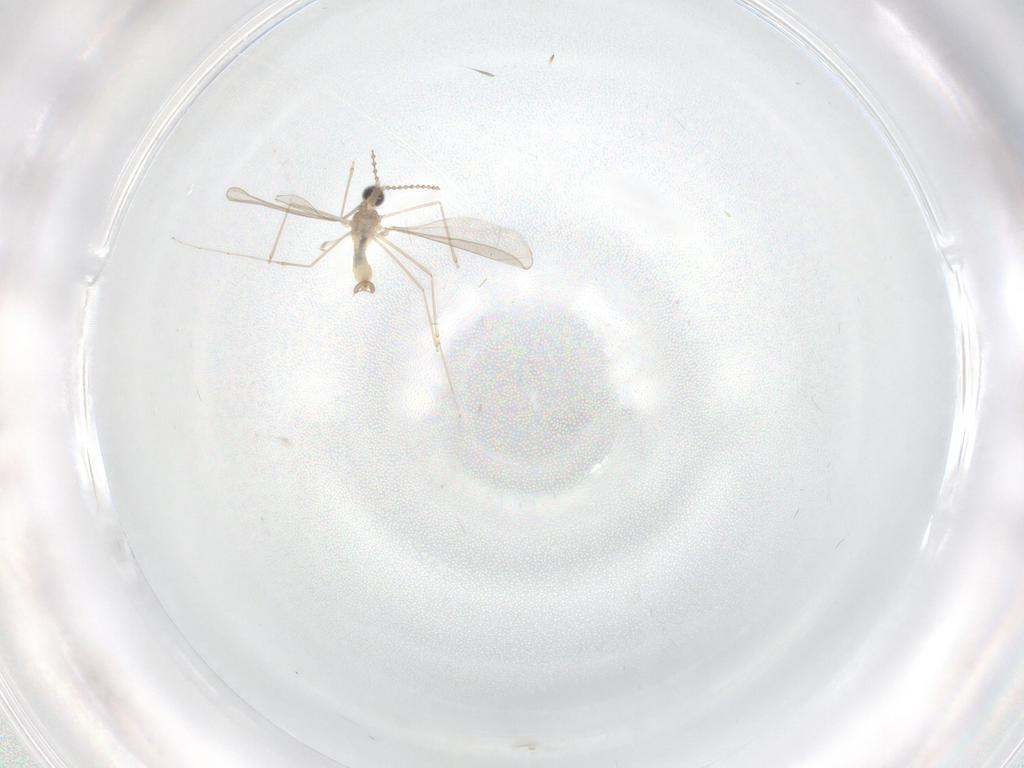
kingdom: Animalia
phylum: Arthropoda
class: Insecta
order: Diptera
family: Cecidomyiidae
